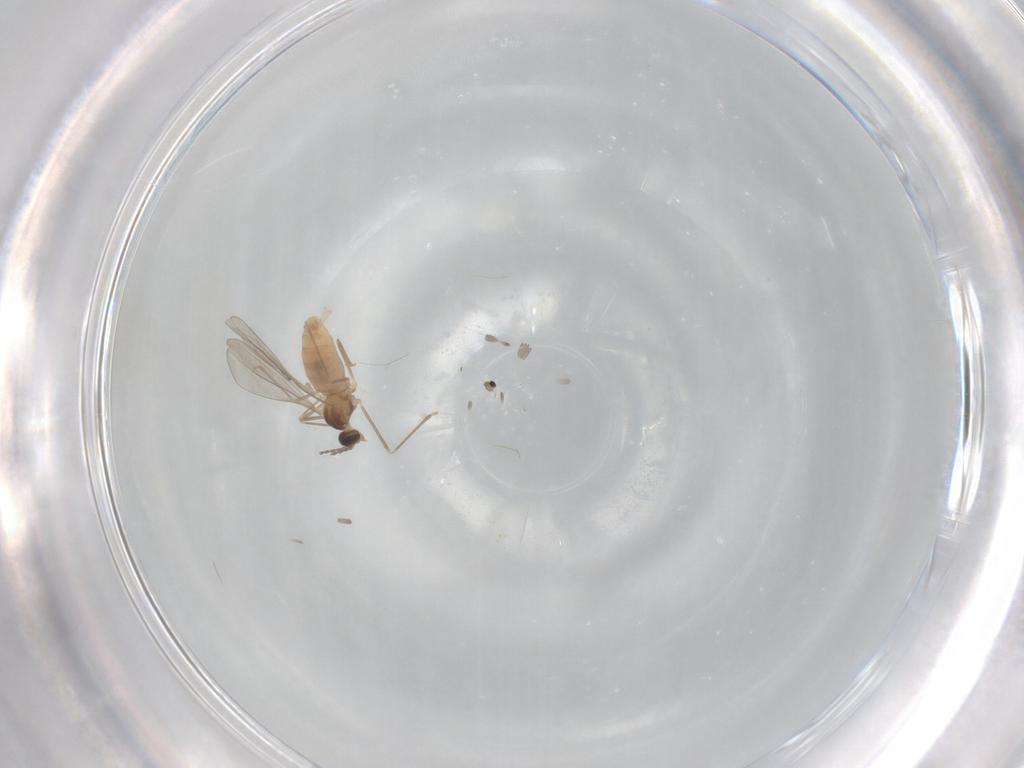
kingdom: Animalia
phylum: Arthropoda
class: Insecta
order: Diptera
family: Cecidomyiidae
